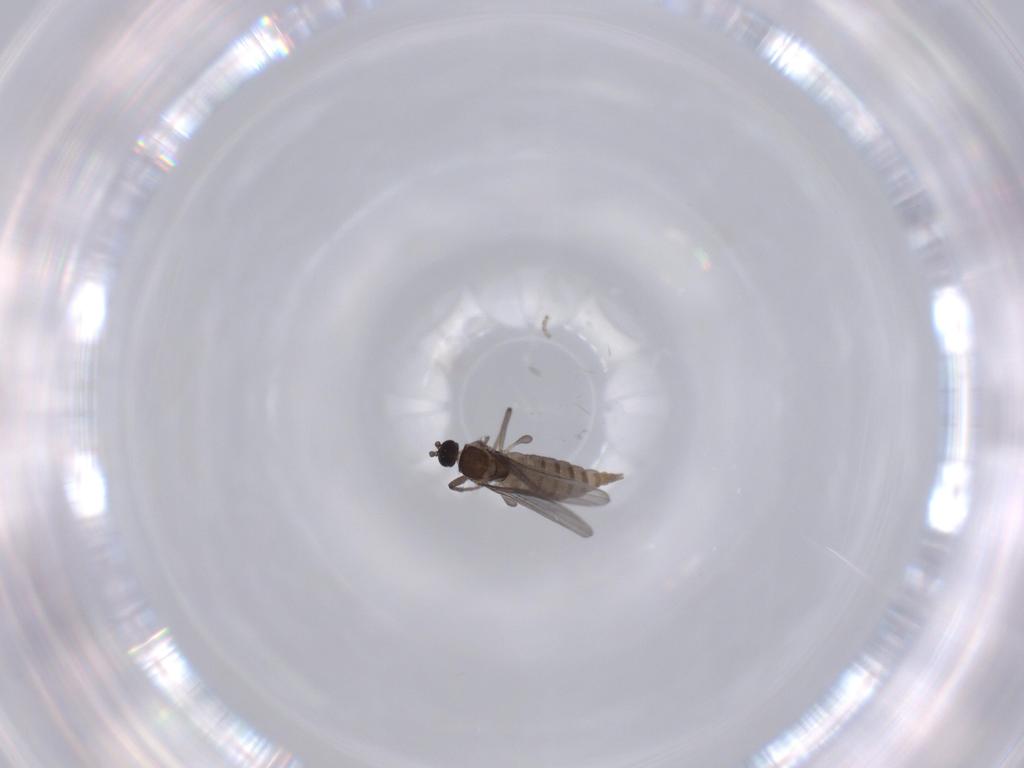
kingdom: Animalia
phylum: Arthropoda
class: Insecta
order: Diptera
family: Sciaridae
